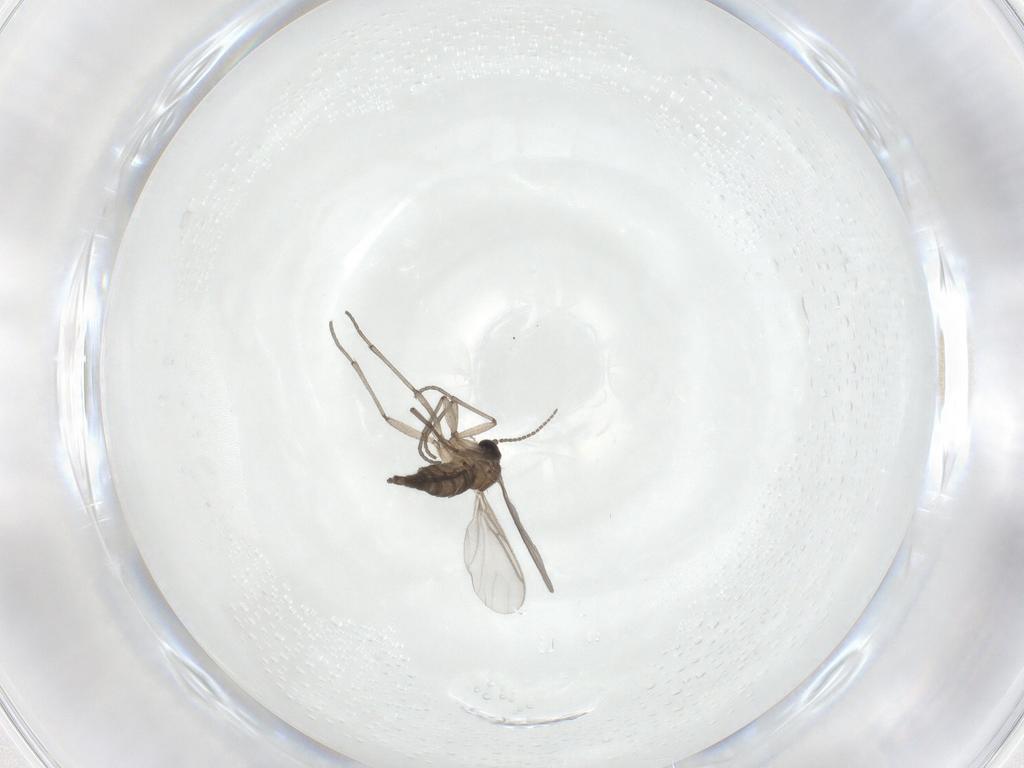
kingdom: Animalia
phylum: Arthropoda
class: Insecta
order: Diptera
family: Sciaridae
